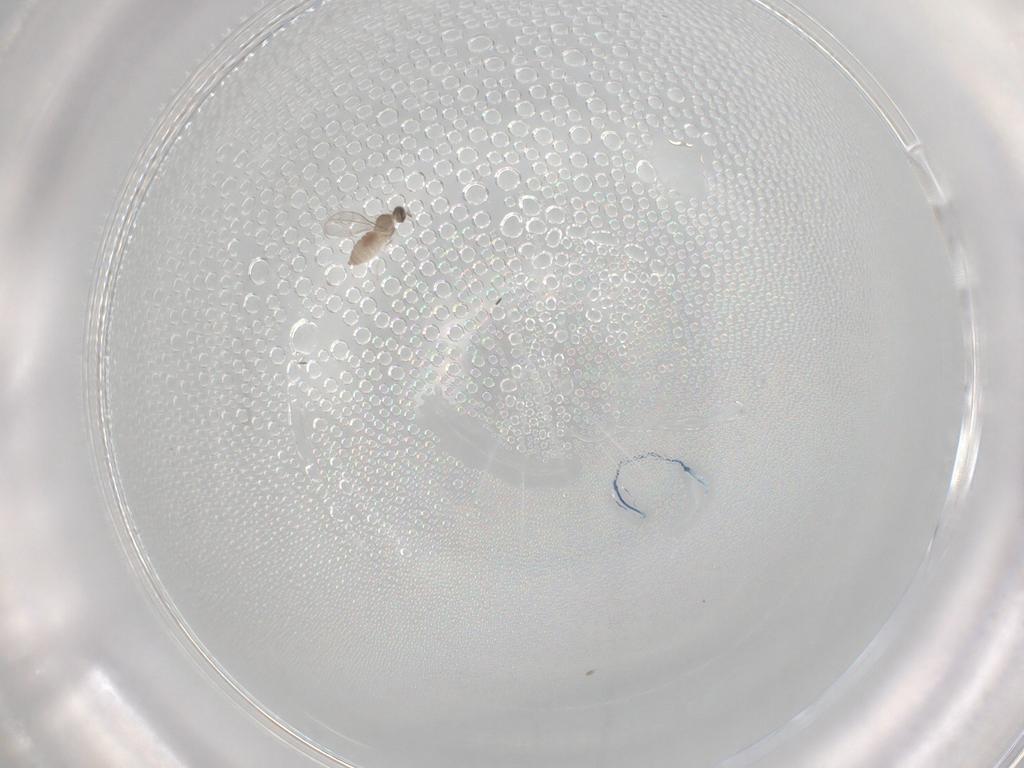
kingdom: Animalia
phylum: Arthropoda
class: Insecta
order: Diptera
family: Cecidomyiidae
